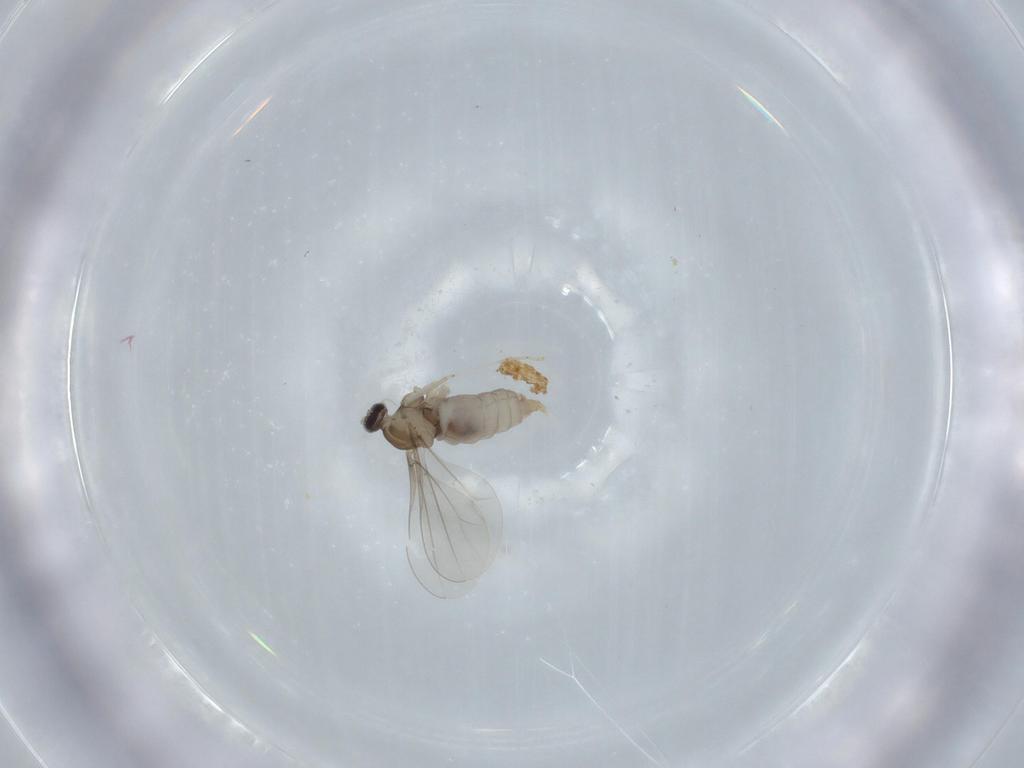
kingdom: Animalia
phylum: Arthropoda
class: Insecta
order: Diptera
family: Cecidomyiidae
